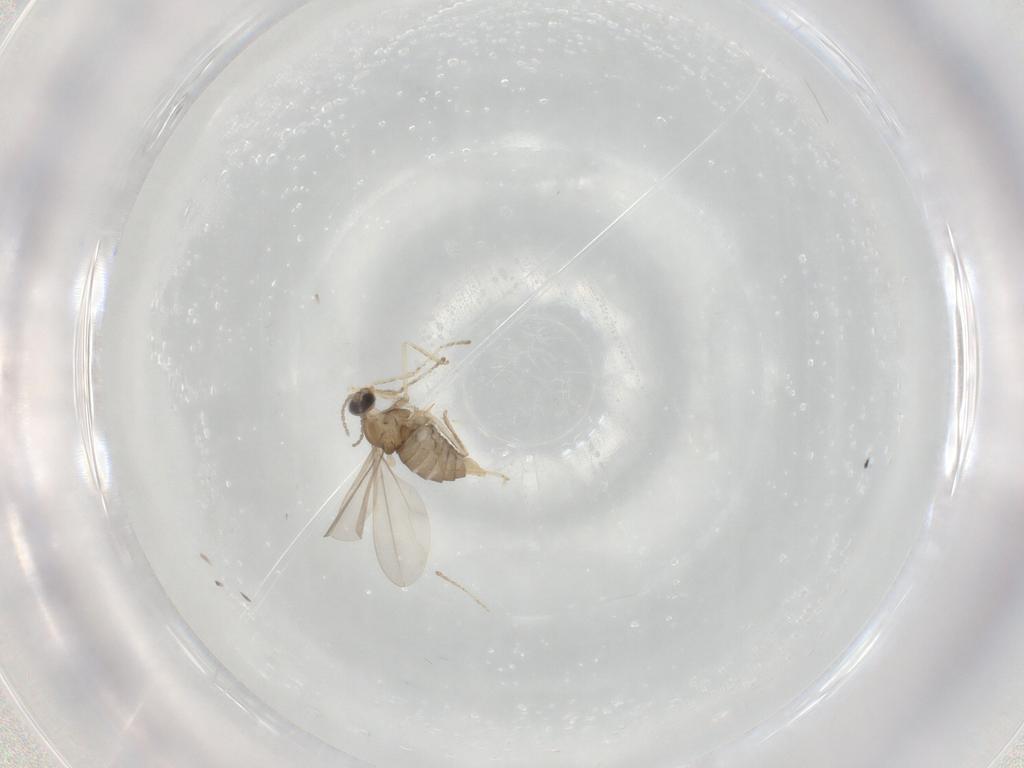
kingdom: Animalia
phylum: Arthropoda
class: Insecta
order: Diptera
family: Cecidomyiidae
